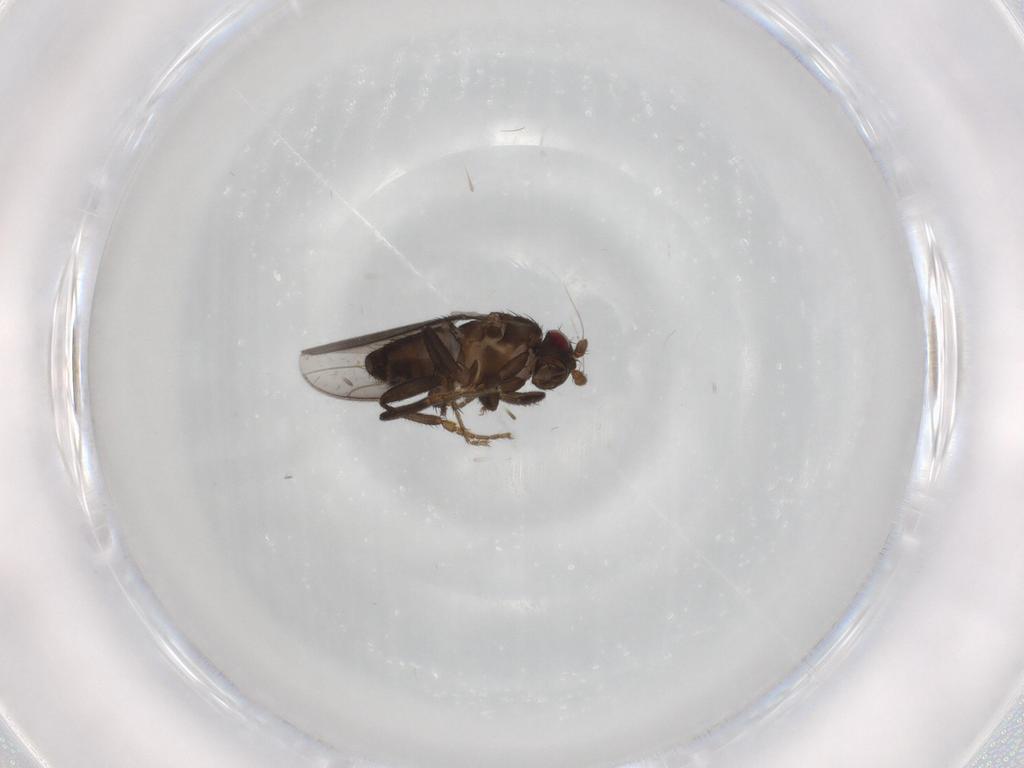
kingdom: Animalia
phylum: Arthropoda
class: Insecta
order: Diptera
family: Sphaeroceridae
